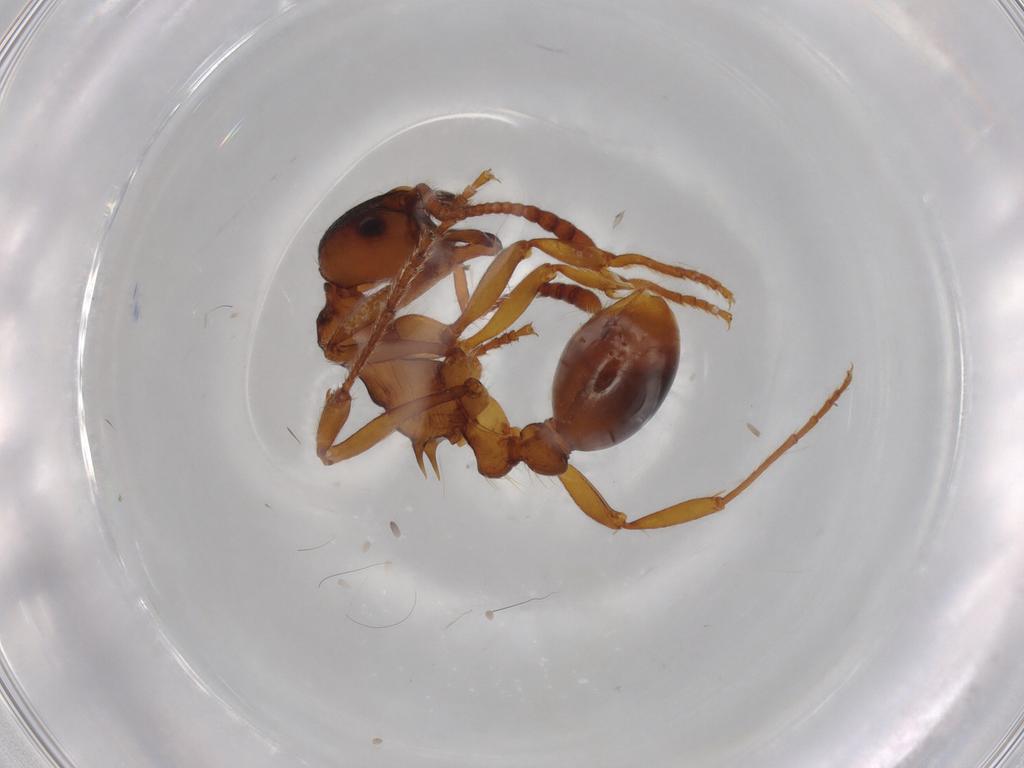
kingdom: Animalia
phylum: Arthropoda
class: Insecta
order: Hymenoptera
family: Formicidae
